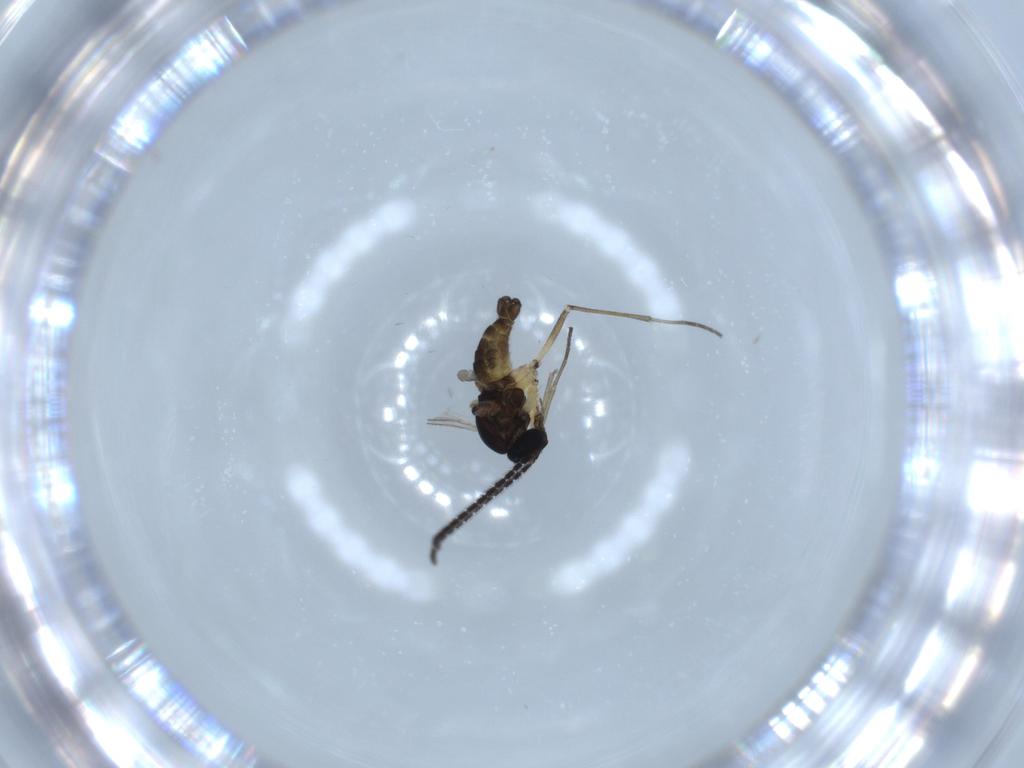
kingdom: Animalia
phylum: Arthropoda
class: Insecta
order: Diptera
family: Sciaridae
